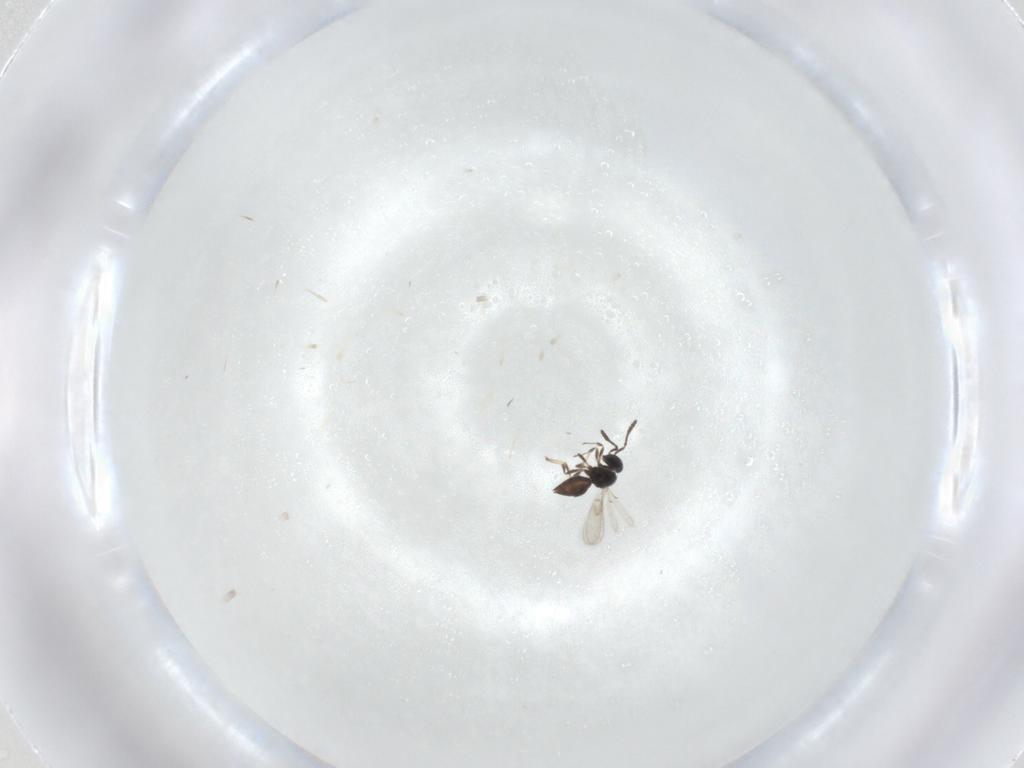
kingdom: Animalia
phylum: Arthropoda
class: Insecta
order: Hymenoptera
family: Scelionidae
